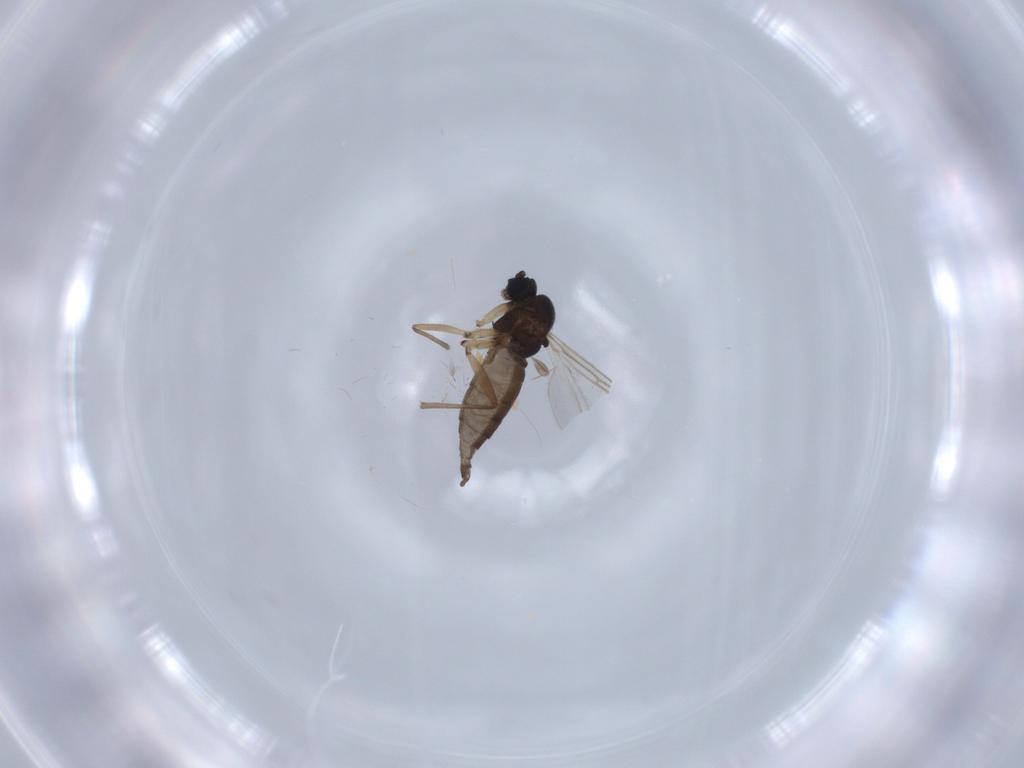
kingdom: Animalia
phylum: Arthropoda
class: Insecta
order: Diptera
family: Sciaridae
